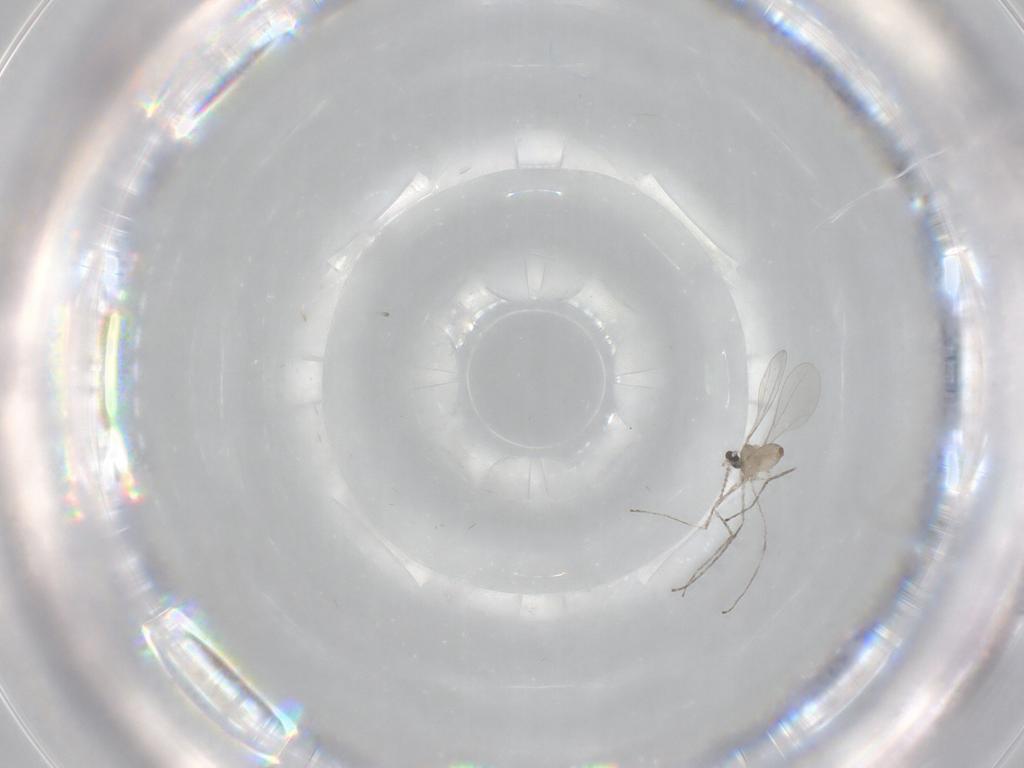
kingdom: Animalia
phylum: Arthropoda
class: Insecta
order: Diptera
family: Cecidomyiidae
